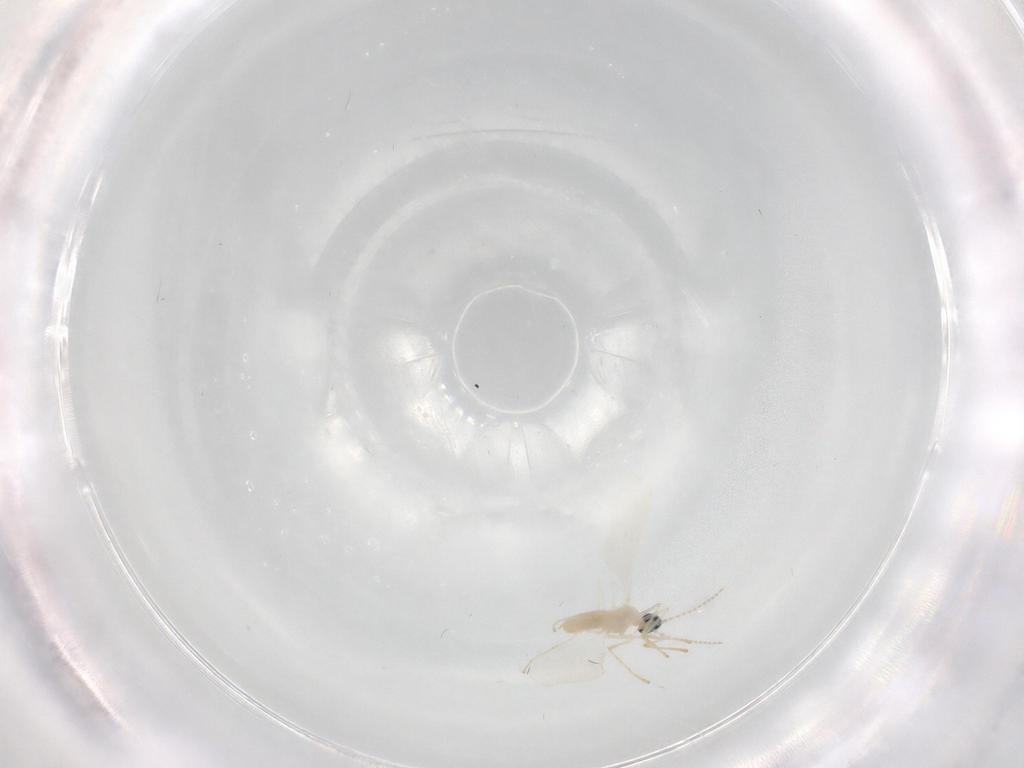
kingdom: Animalia
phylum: Arthropoda
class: Insecta
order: Diptera
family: Cecidomyiidae
